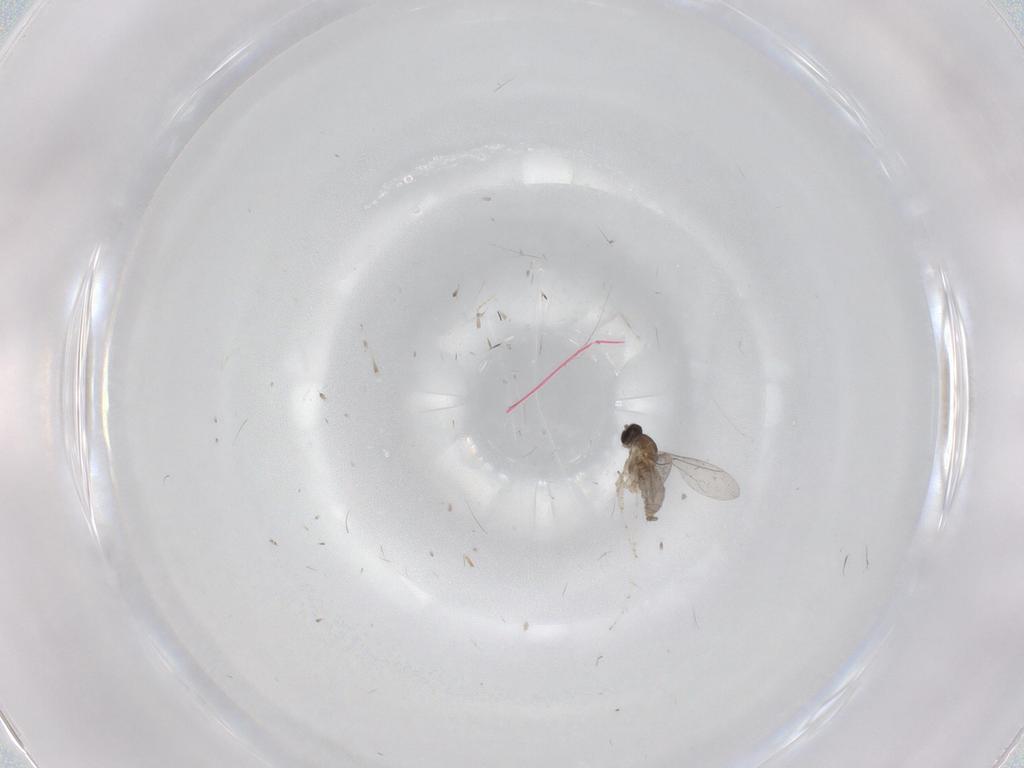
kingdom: Animalia
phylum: Arthropoda
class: Insecta
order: Diptera
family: Cecidomyiidae
